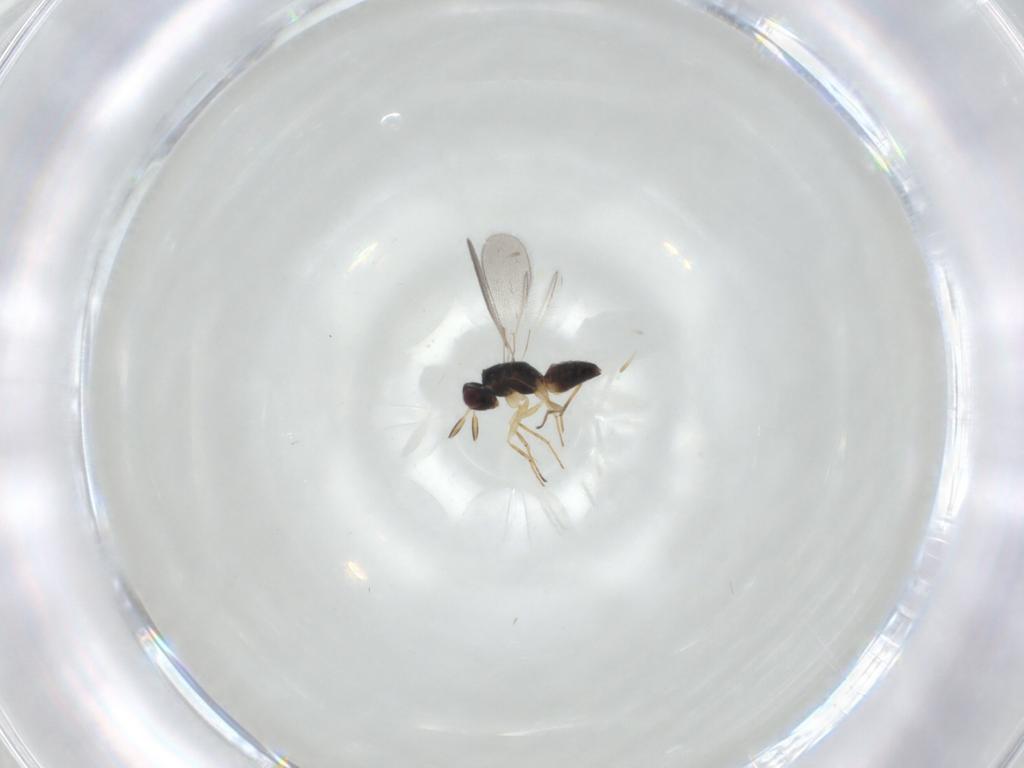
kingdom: Animalia
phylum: Arthropoda
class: Insecta
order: Hymenoptera
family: Mymaridae
